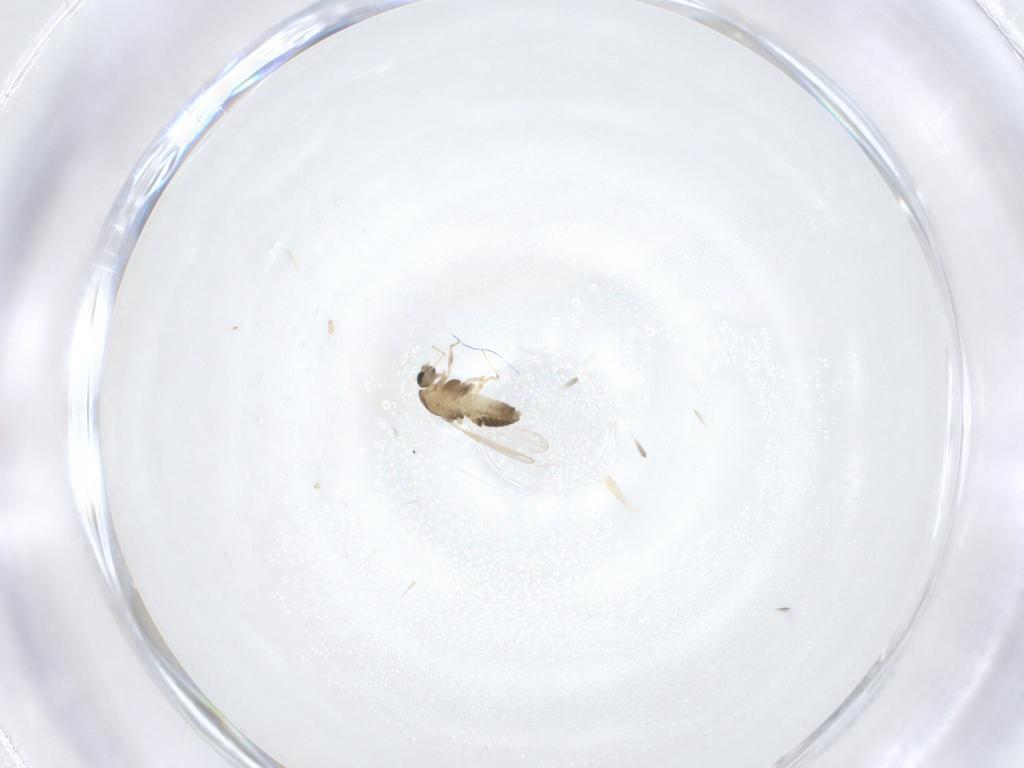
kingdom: Animalia
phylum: Arthropoda
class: Insecta
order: Diptera
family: Chironomidae
